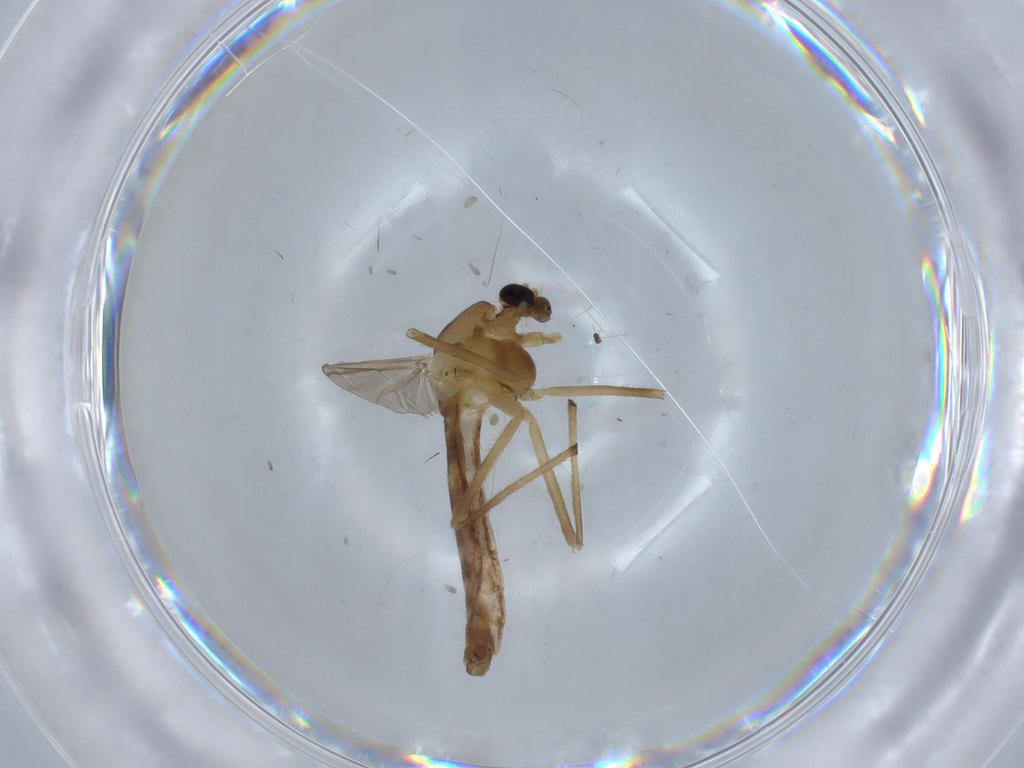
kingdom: Animalia
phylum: Arthropoda
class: Insecta
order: Diptera
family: Chironomidae
